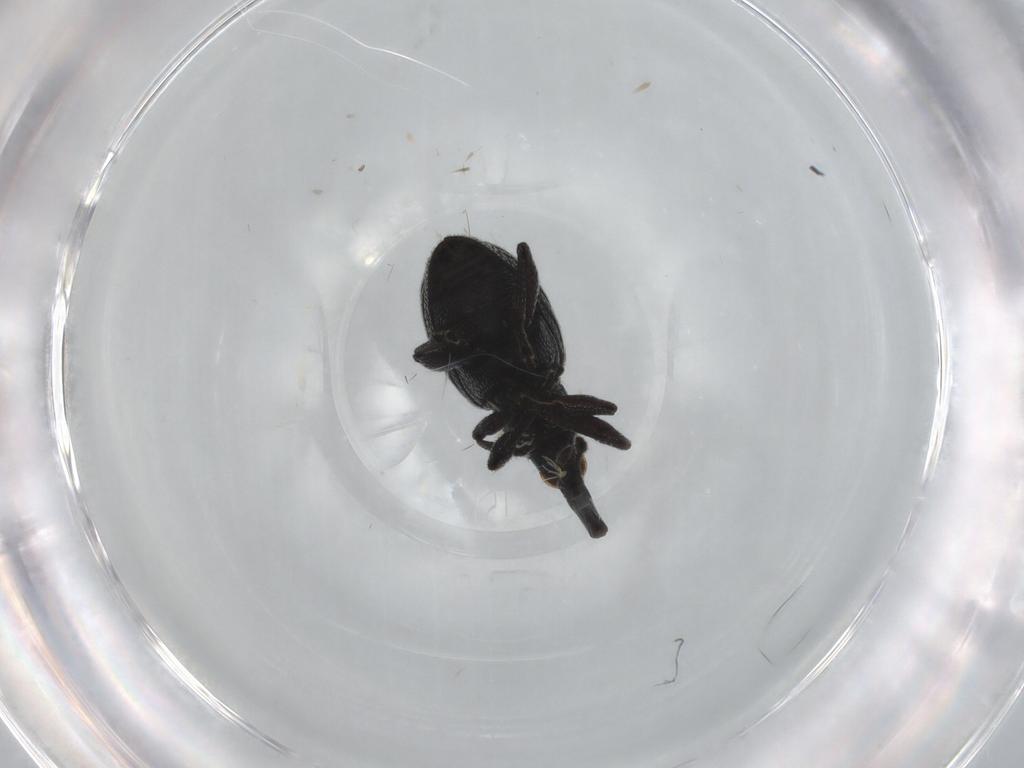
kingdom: Animalia
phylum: Arthropoda
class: Insecta
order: Coleoptera
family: Brentidae
